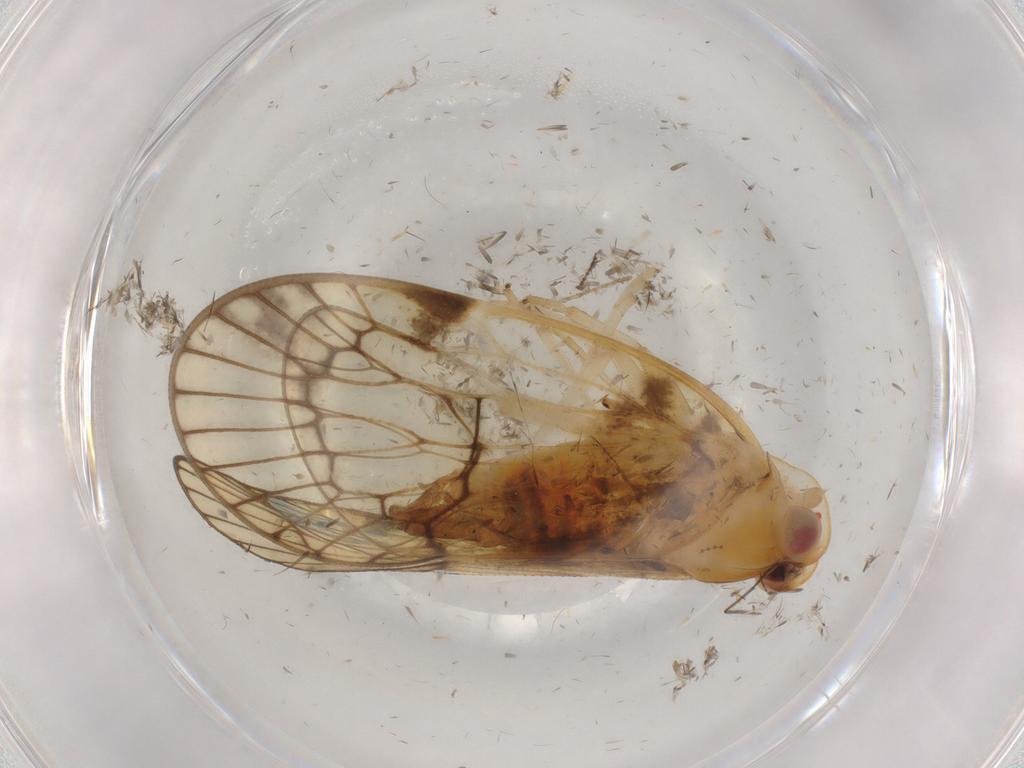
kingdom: Animalia
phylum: Arthropoda
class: Insecta
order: Hemiptera
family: Cixiidae
